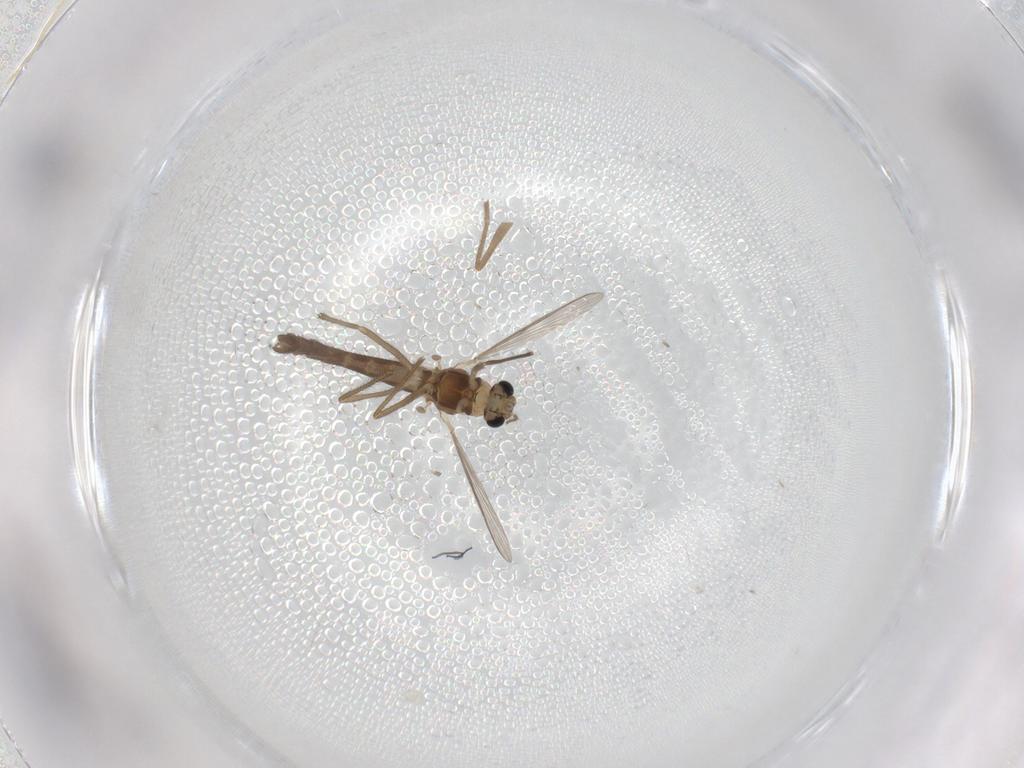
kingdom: Animalia
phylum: Arthropoda
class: Insecta
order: Diptera
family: Chironomidae
